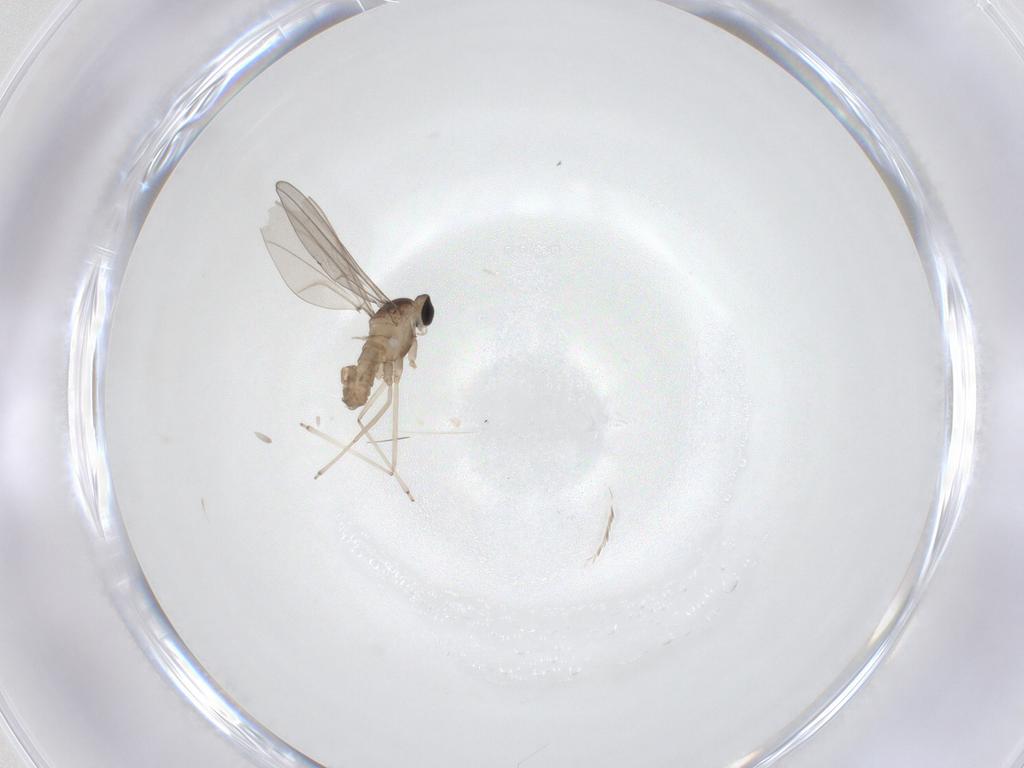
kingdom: Animalia
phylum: Arthropoda
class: Insecta
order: Diptera
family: Cecidomyiidae
